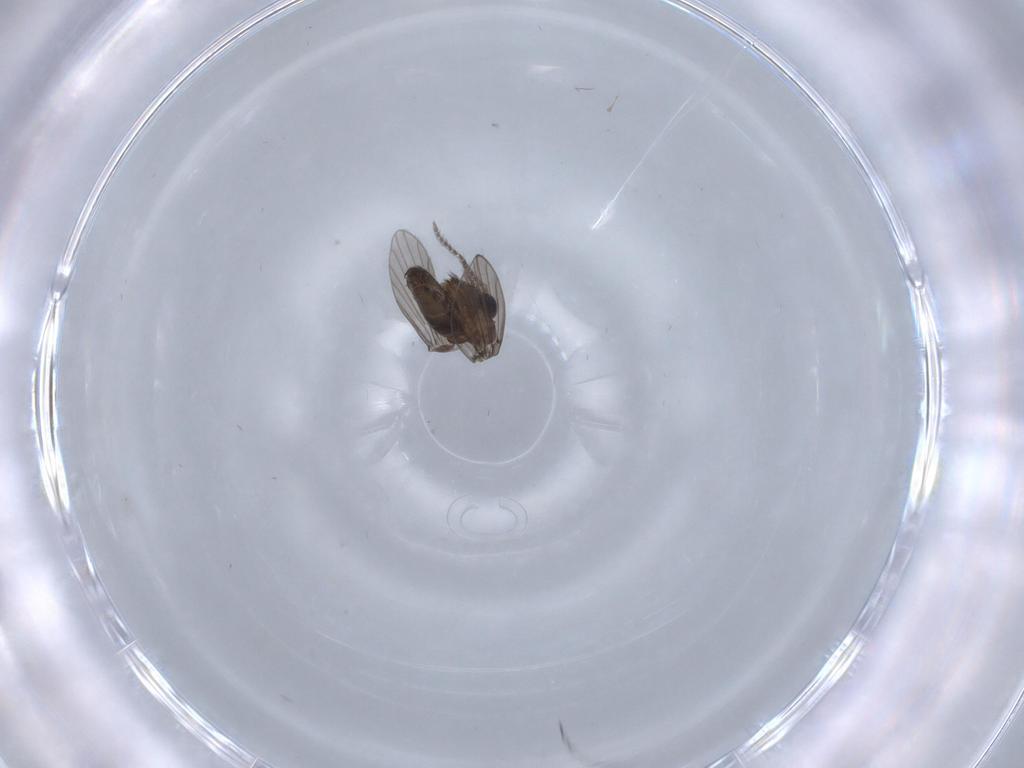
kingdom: Animalia
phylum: Arthropoda
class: Insecta
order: Diptera
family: Psychodidae
